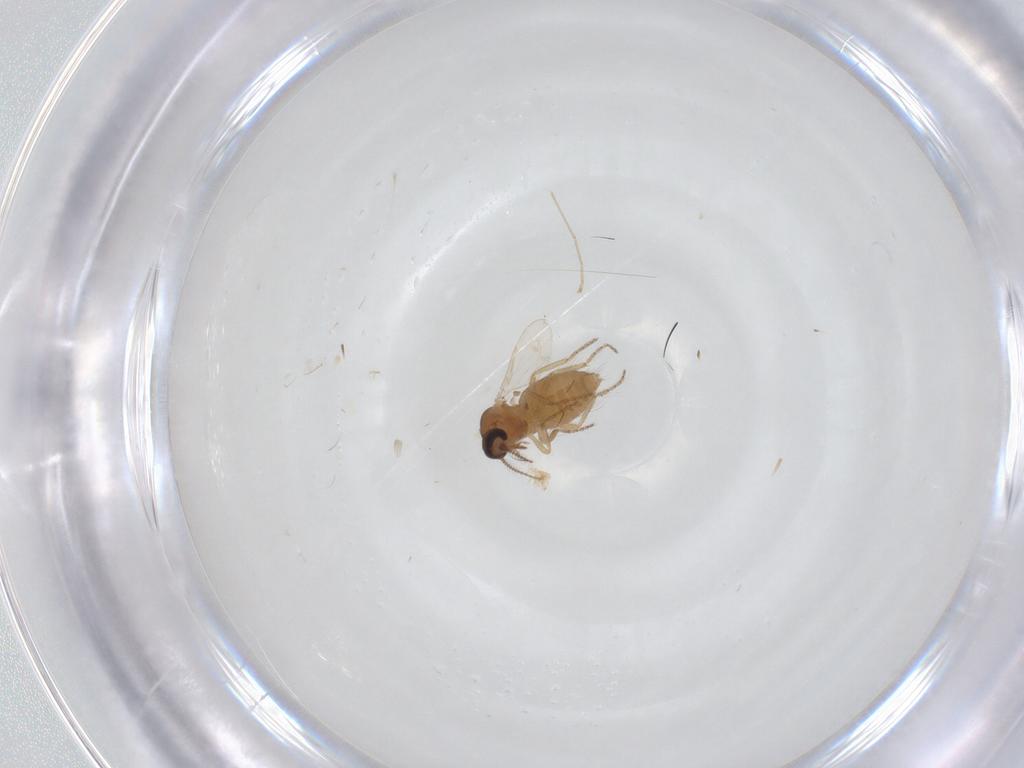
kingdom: Animalia
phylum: Arthropoda
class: Insecta
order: Diptera
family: Ceratopogonidae
